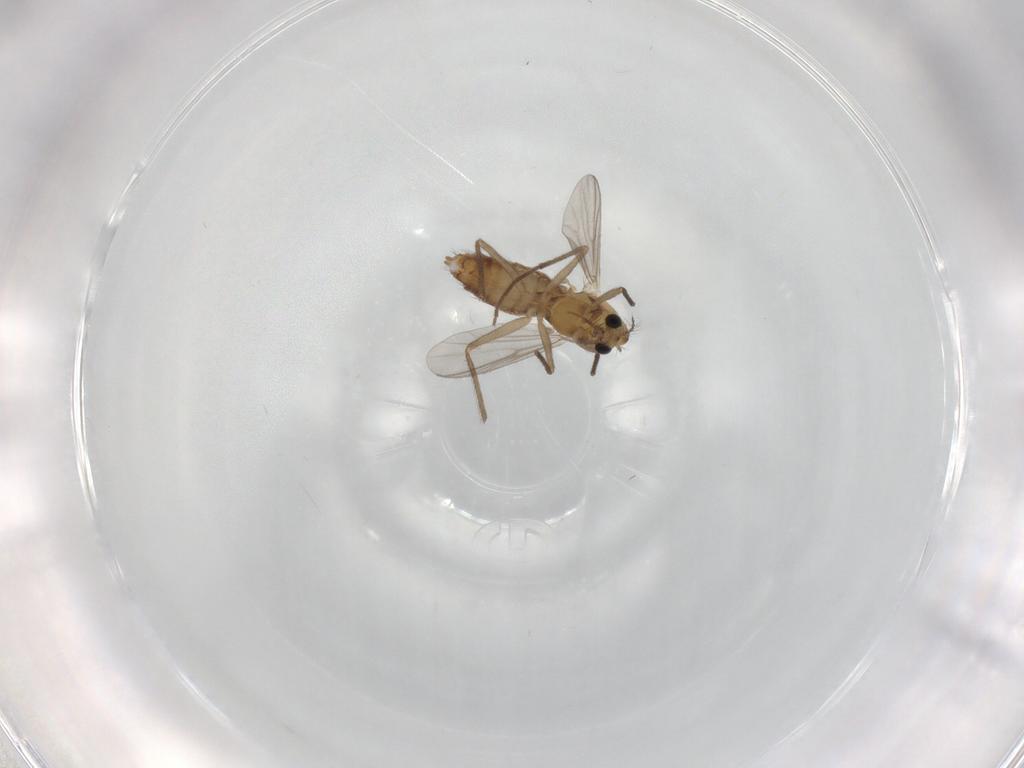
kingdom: Animalia
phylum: Arthropoda
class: Insecta
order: Diptera
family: Chironomidae
